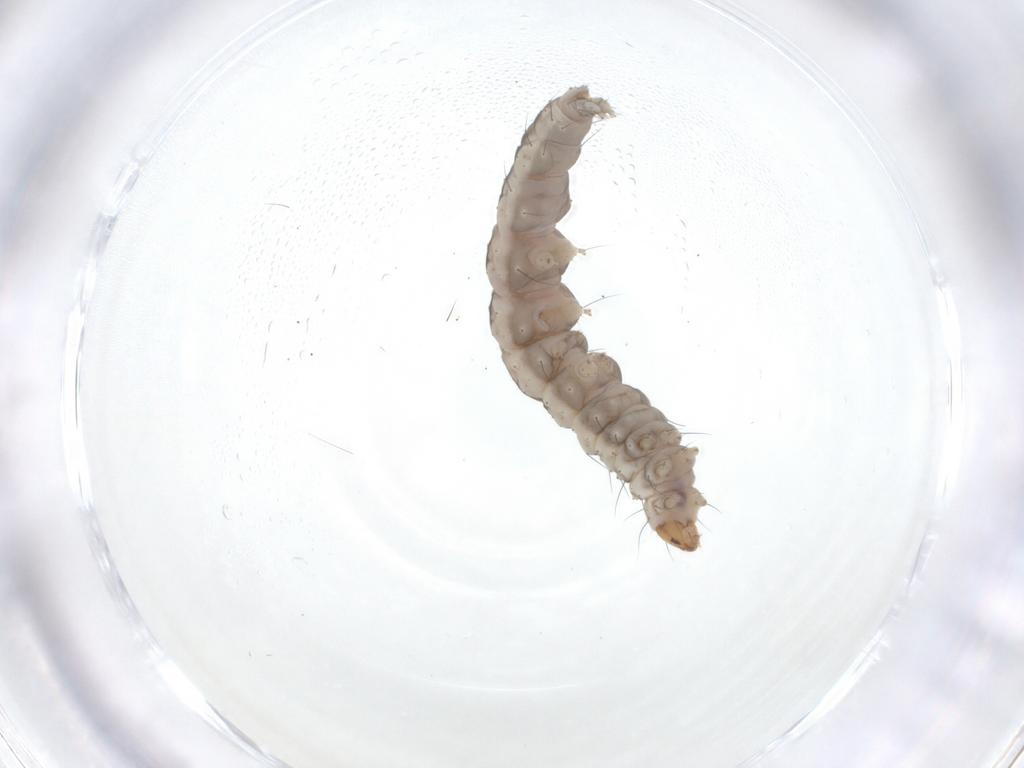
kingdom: Animalia
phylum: Arthropoda
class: Insecta
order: Lepidoptera
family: Bucculatricidae
